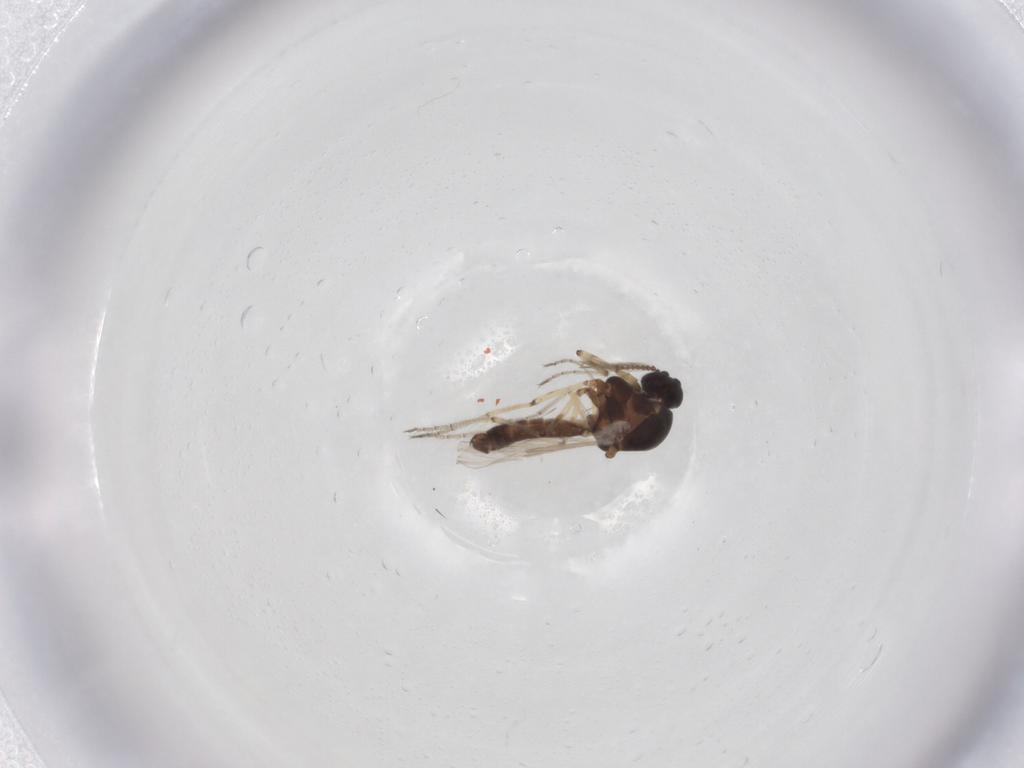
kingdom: Animalia
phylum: Arthropoda
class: Insecta
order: Diptera
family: Ceratopogonidae
